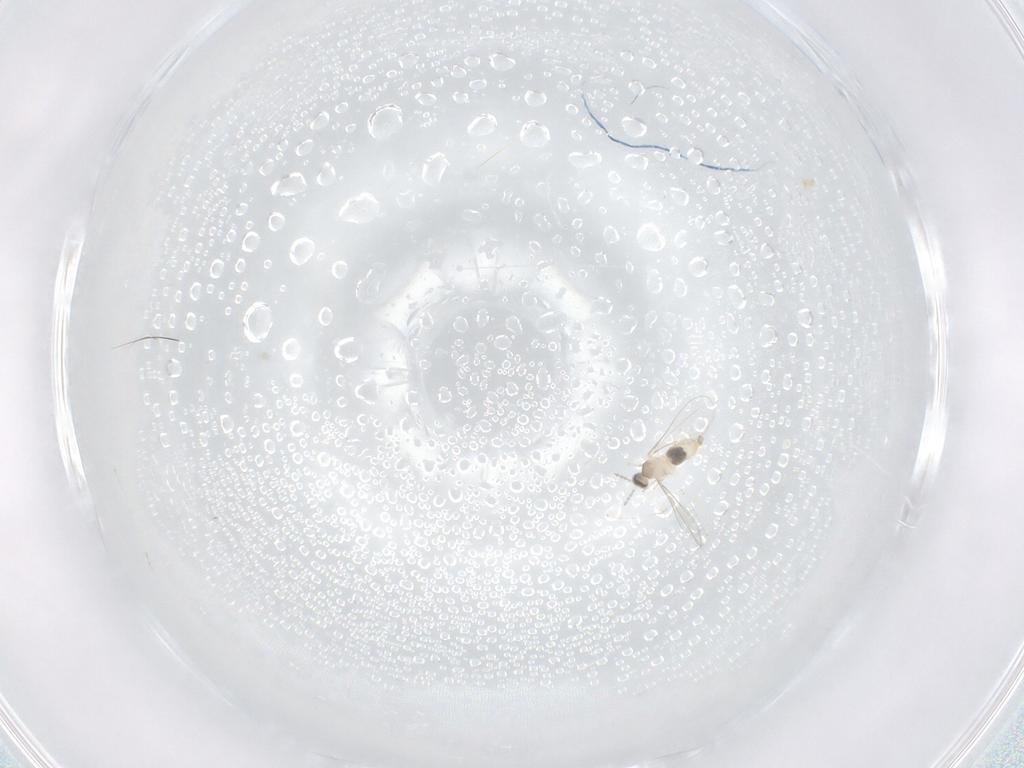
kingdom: Animalia
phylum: Arthropoda
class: Insecta
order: Diptera
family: Cecidomyiidae
